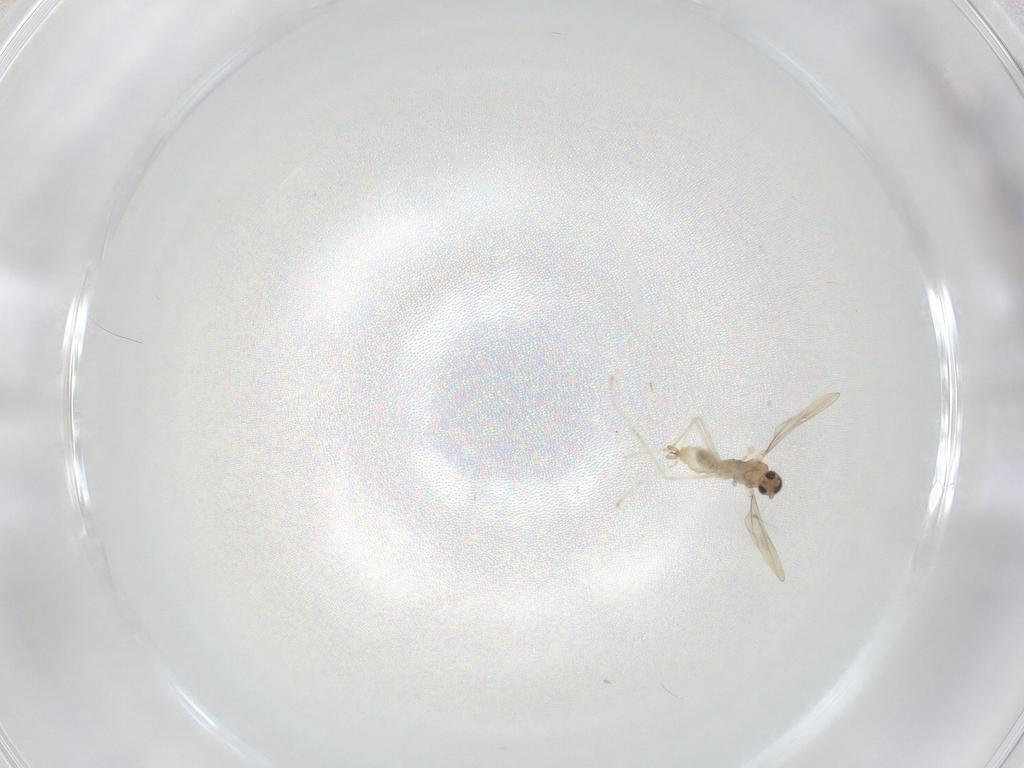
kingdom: Animalia
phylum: Arthropoda
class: Insecta
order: Diptera
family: Cecidomyiidae
